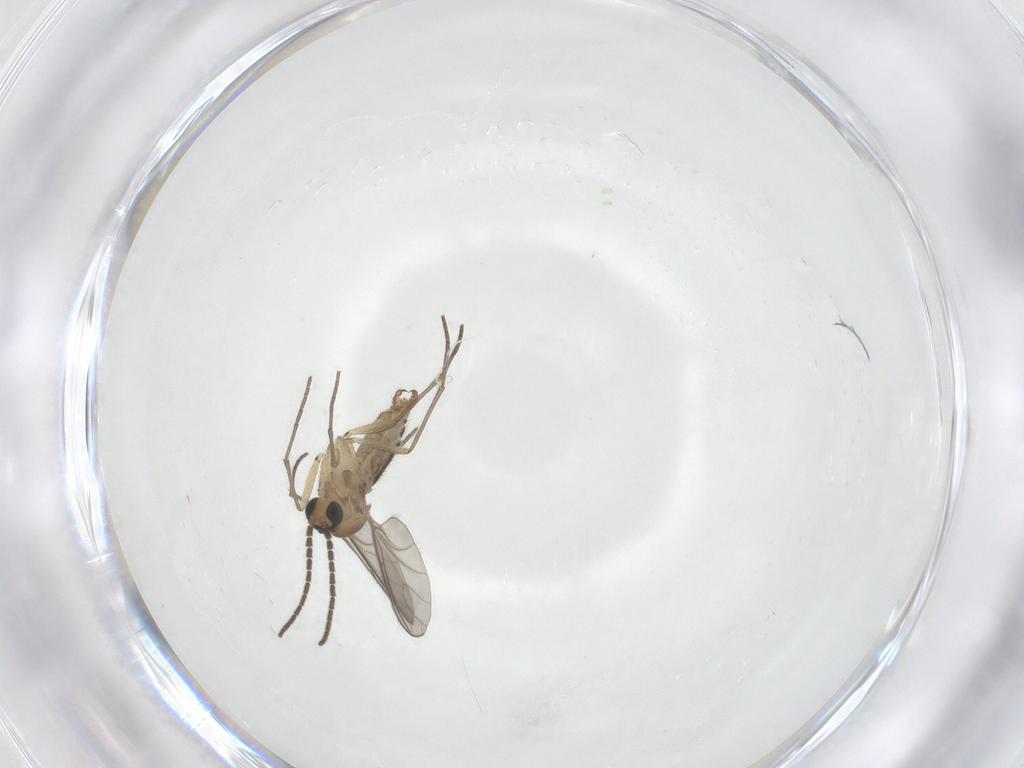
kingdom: Animalia
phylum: Arthropoda
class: Insecta
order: Diptera
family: Sciaridae
